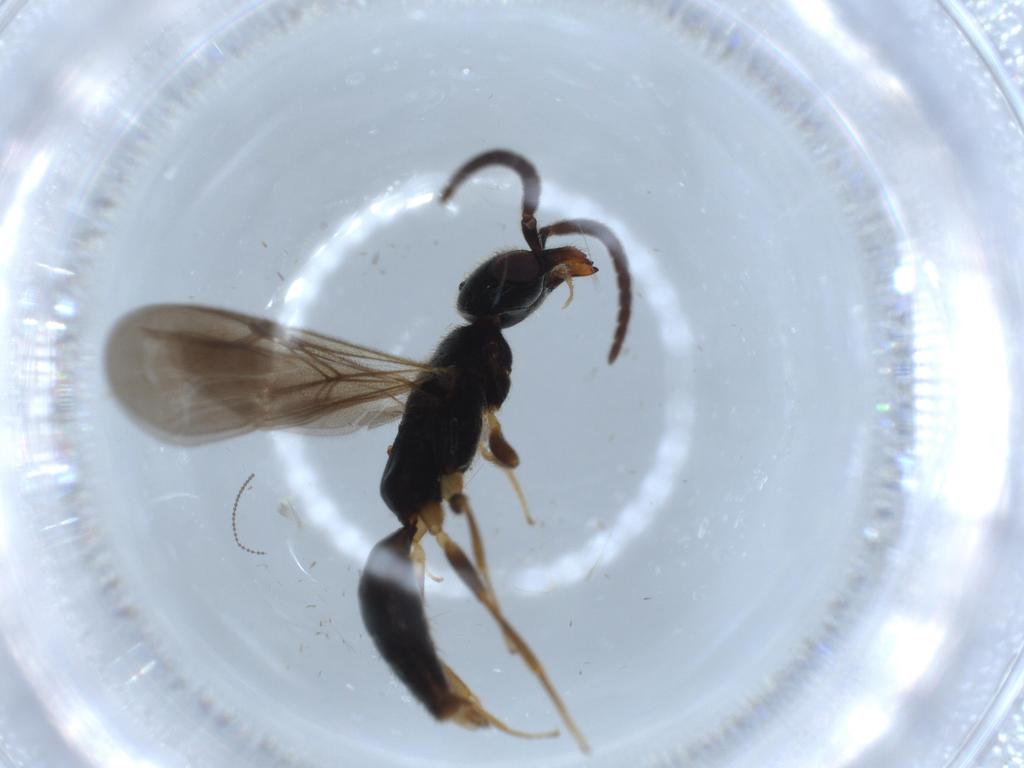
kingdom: Animalia
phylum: Arthropoda
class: Insecta
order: Hymenoptera
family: Bethylidae
